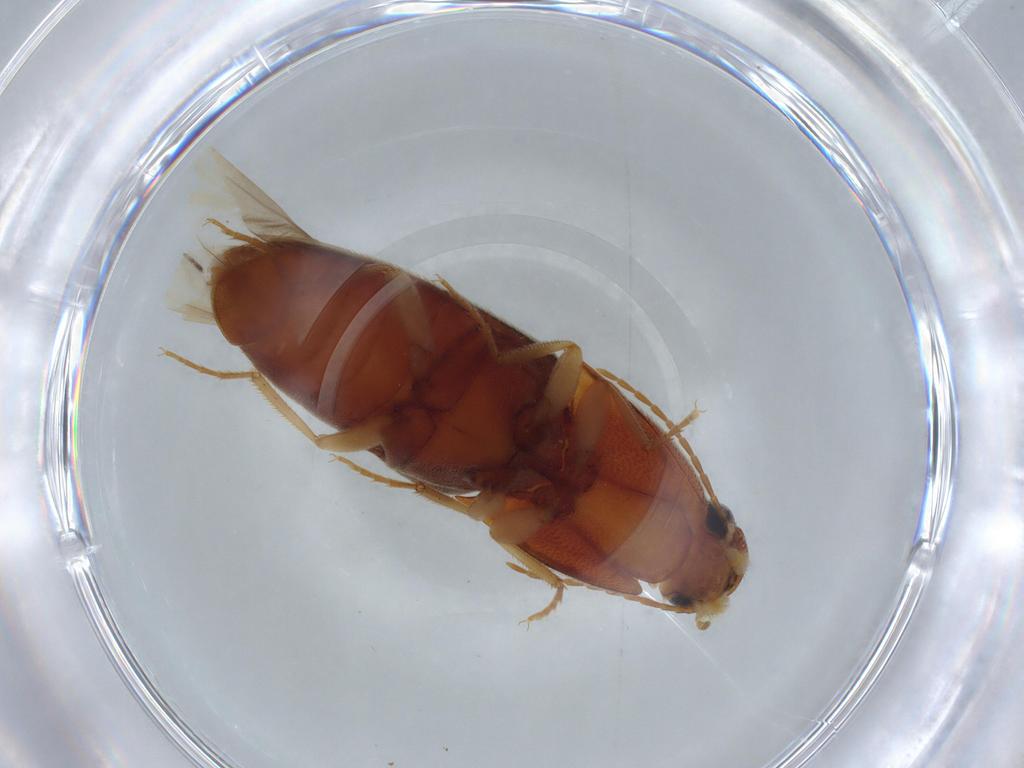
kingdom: Animalia
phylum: Arthropoda
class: Insecta
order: Coleoptera
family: Elateridae
